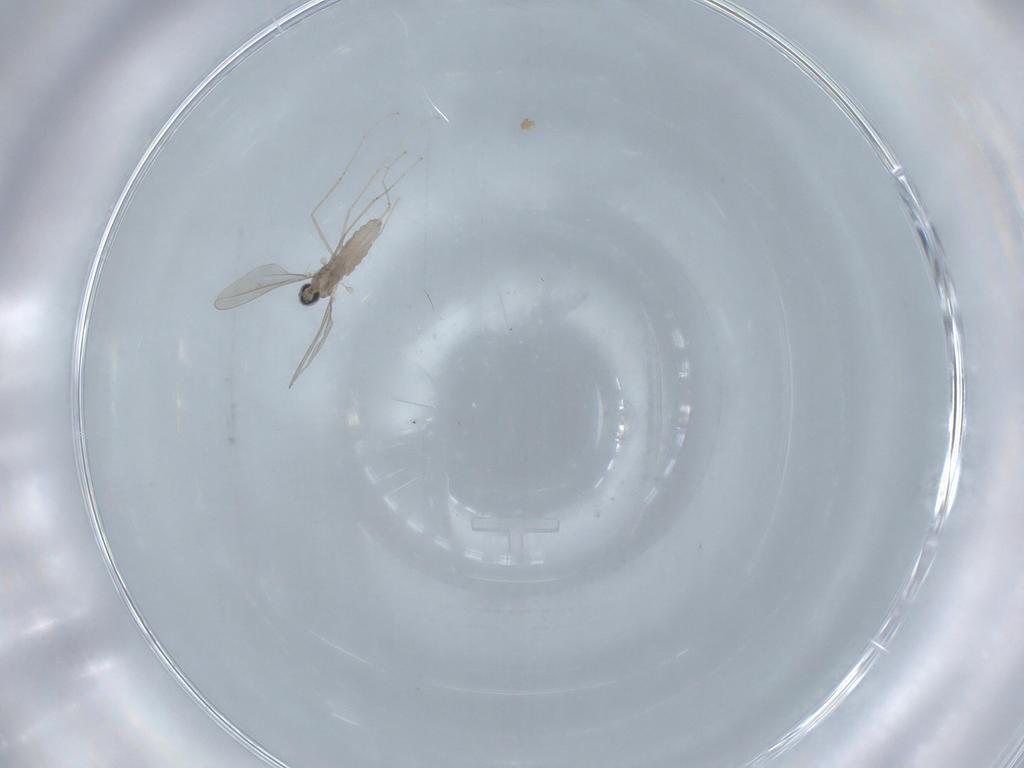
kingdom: Animalia
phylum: Arthropoda
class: Insecta
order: Diptera
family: Cecidomyiidae
